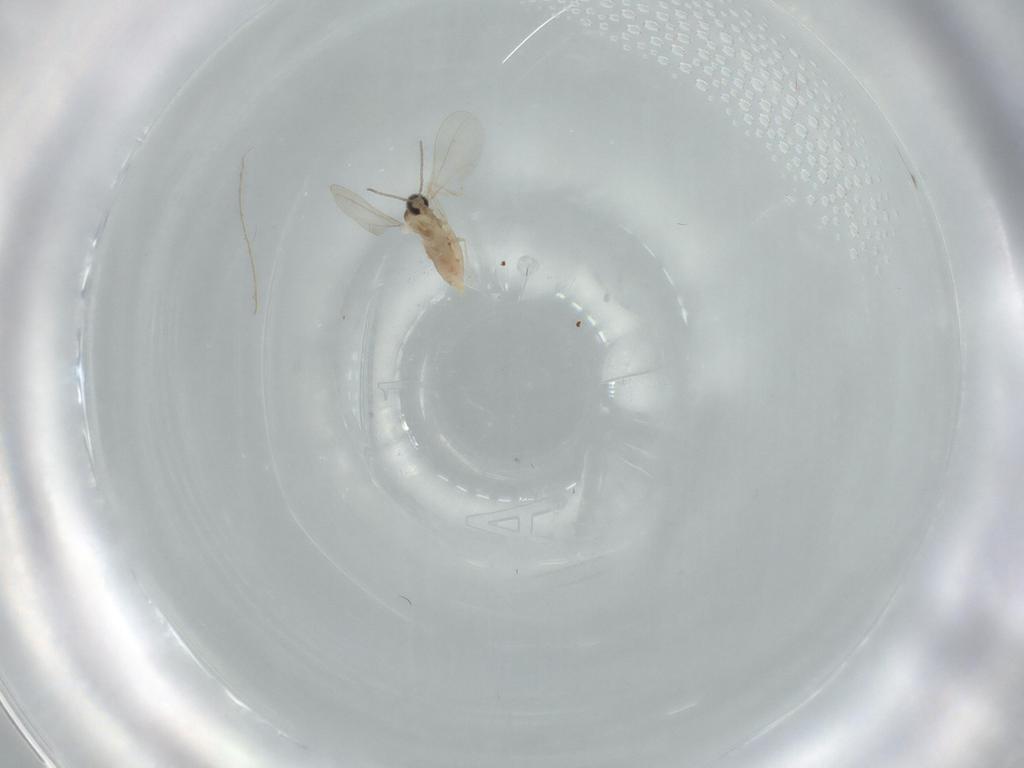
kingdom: Animalia
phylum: Arthropoda
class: Insecta
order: Diptera
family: Cecidomyiidae
